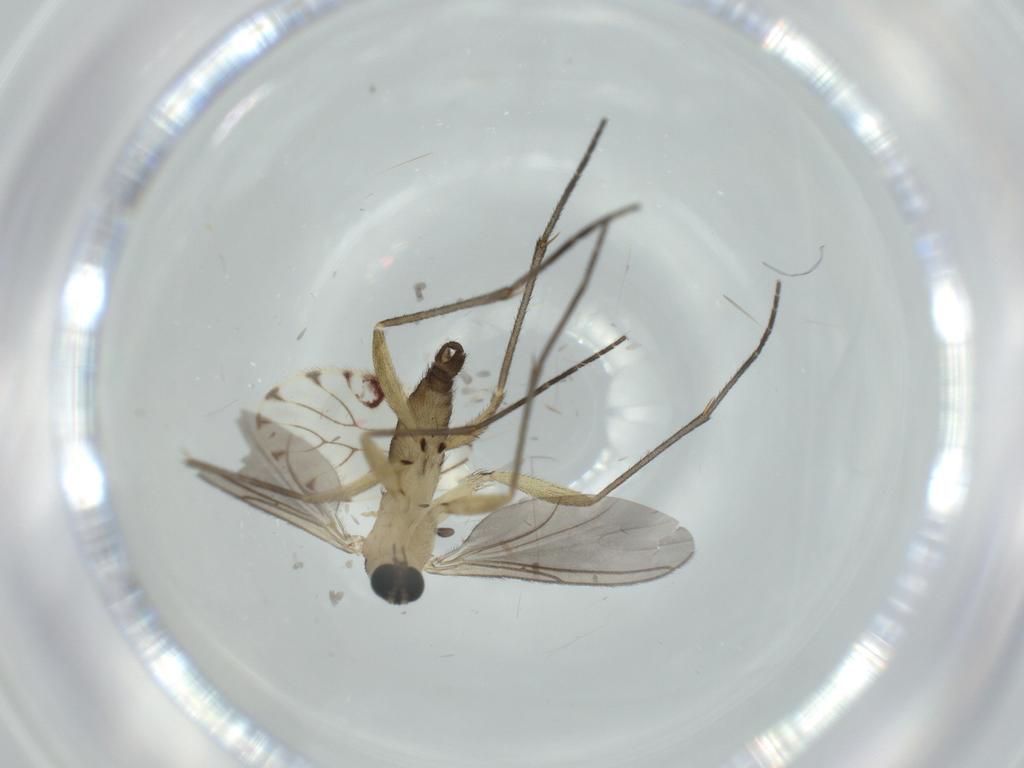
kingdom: Animalia
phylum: Arthropoda
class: Insecta
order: Diptera
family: Sciaridae
